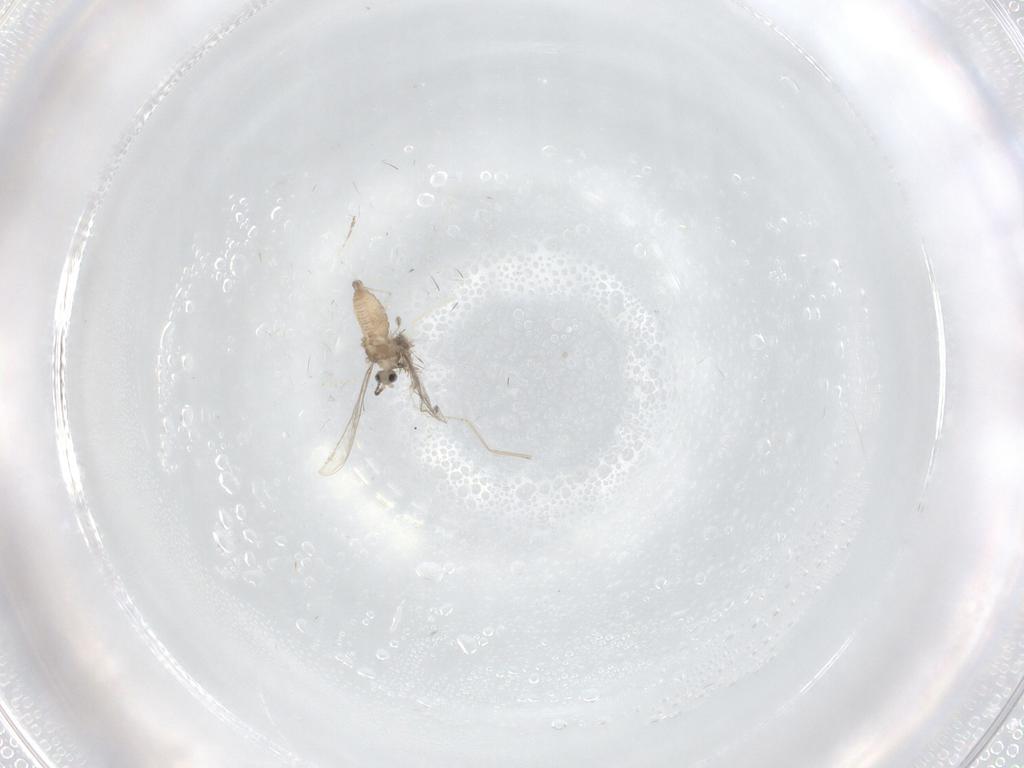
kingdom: Animalia
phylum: Arthropoda
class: Insecta
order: Diptera
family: Cecidomyiidae
